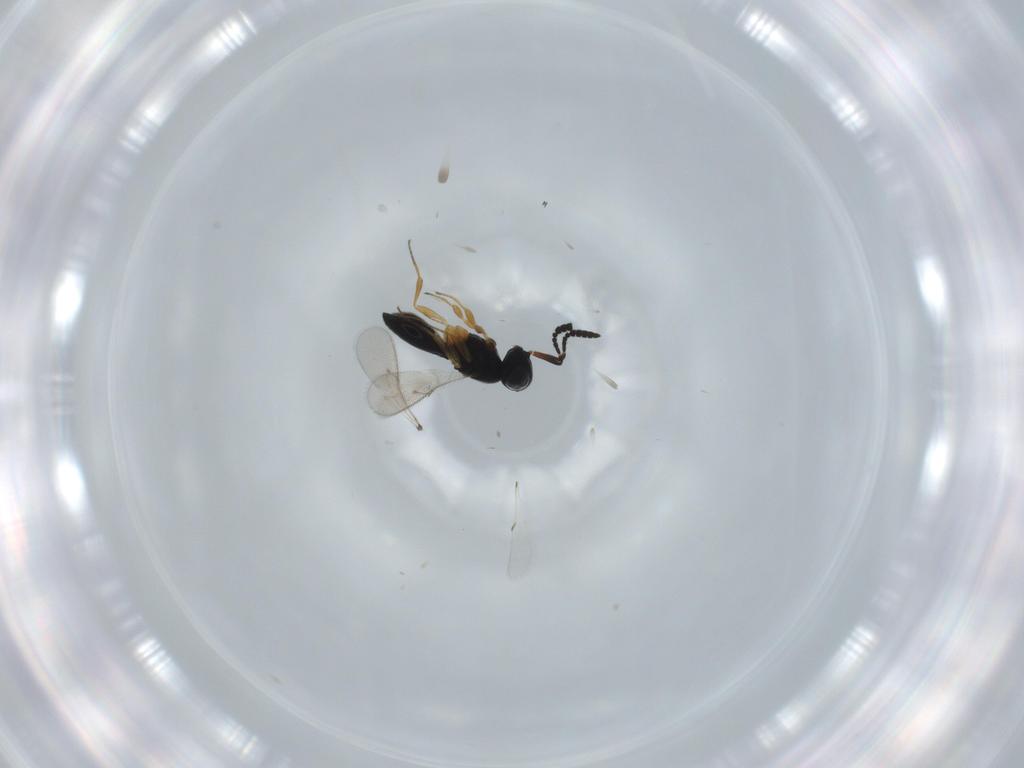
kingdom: Animalia
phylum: Arthropoda
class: Insecta
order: Hymenoptera
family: Scelionidae
